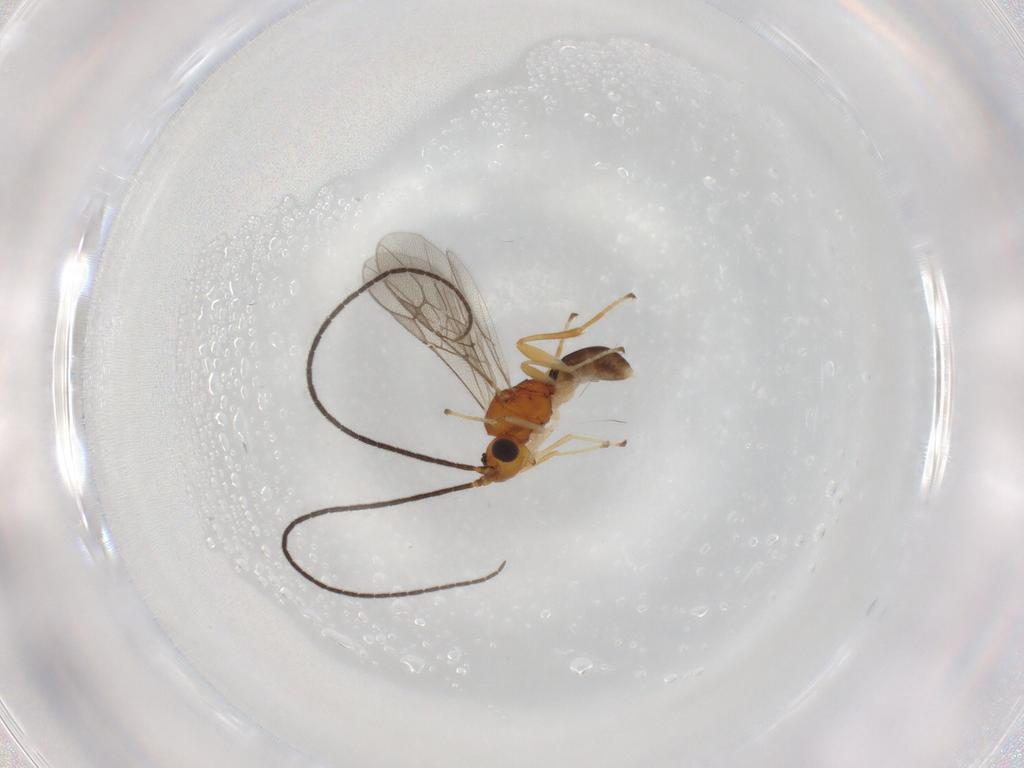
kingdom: Animalia
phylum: Arthropoda
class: Insecta
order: Hymenoptera
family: Braconidae
